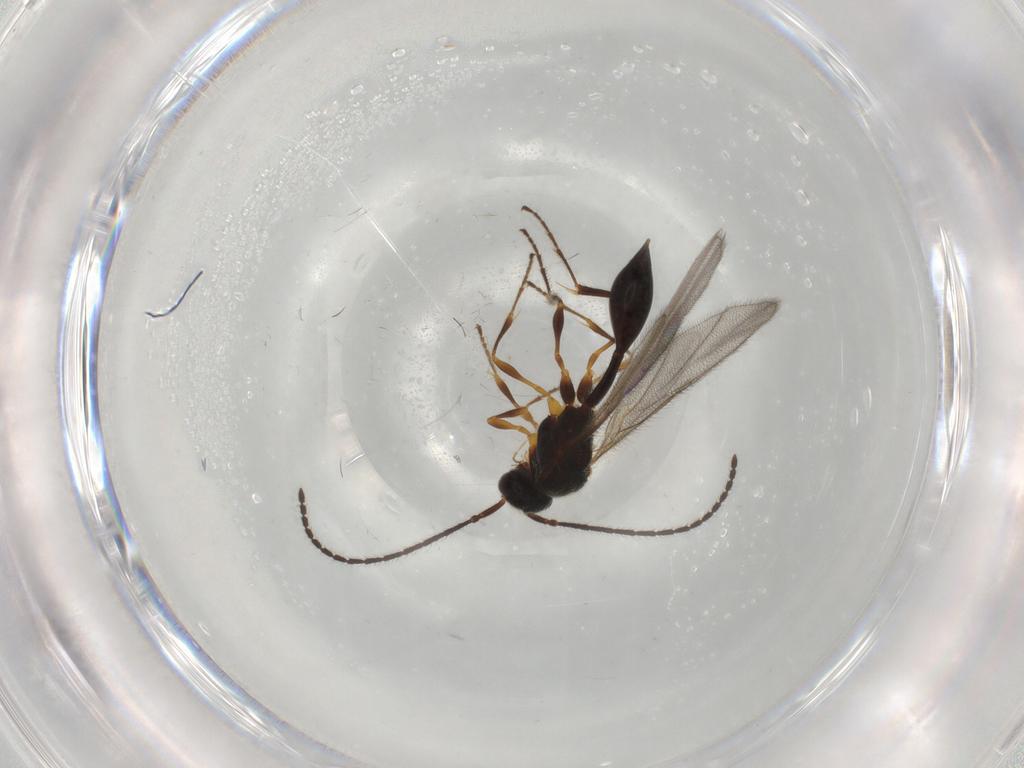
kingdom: Animalia
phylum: Arthropoda
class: Insecta
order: Hymenoptera
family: Diapriidae
